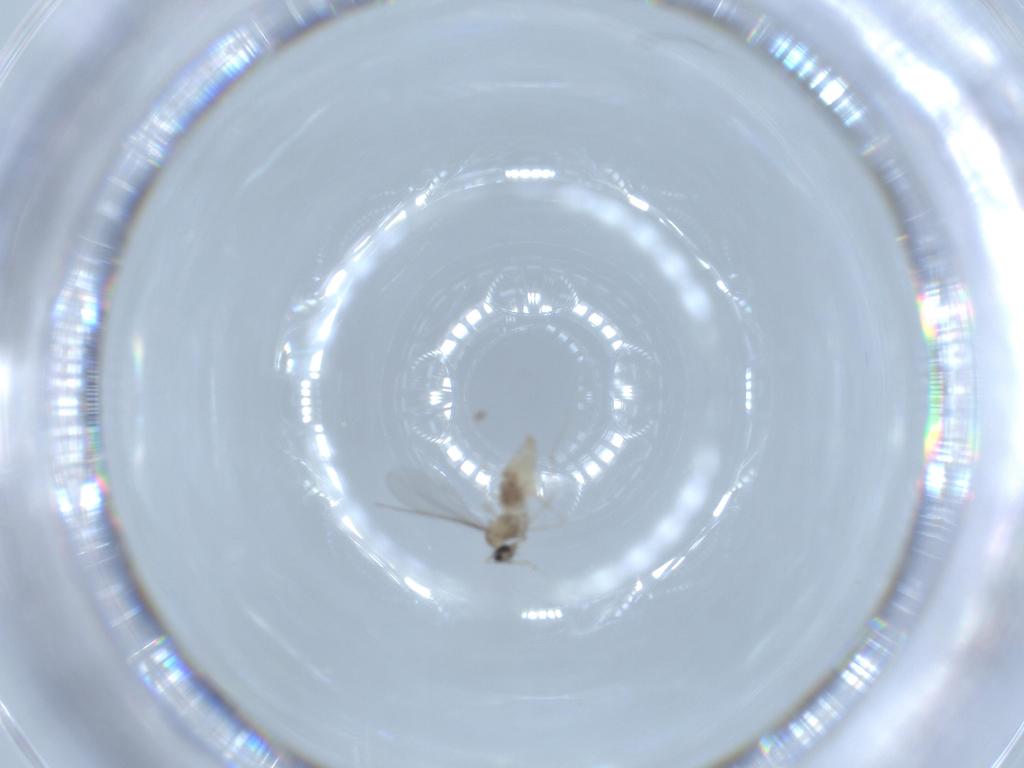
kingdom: Animalia
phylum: Arthropoda
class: Insecta
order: Diptera
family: Cecidomyiidae
